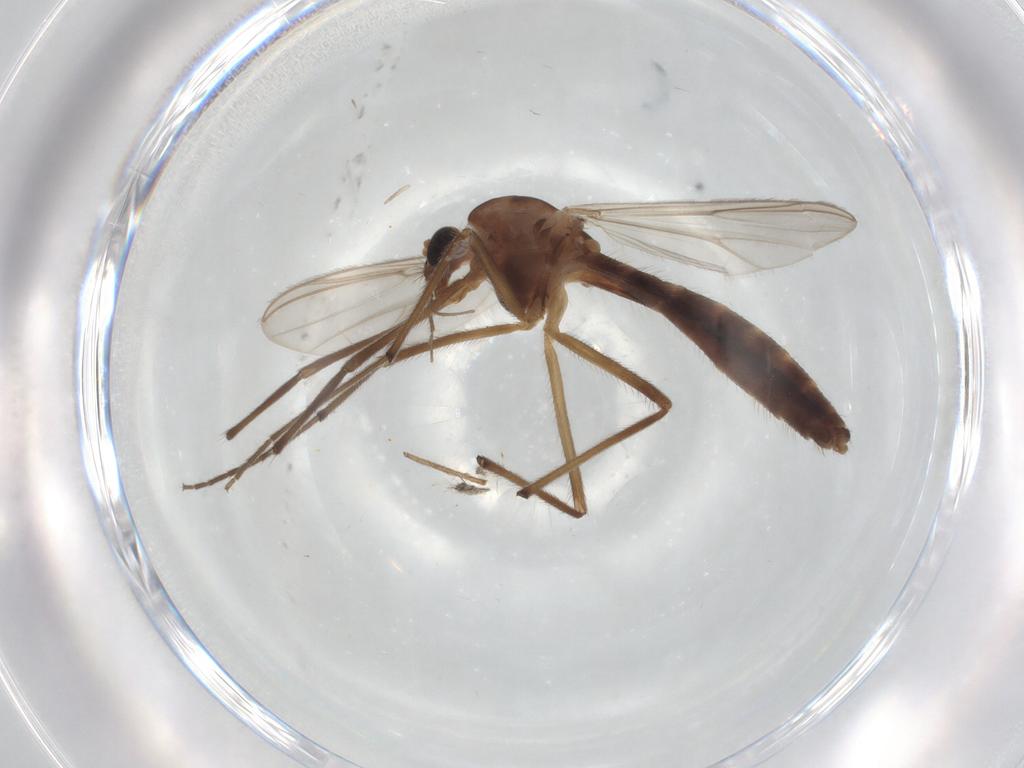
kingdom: Animalia
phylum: Arthropoda
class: Insecta
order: Diptera
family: Chironomidae
